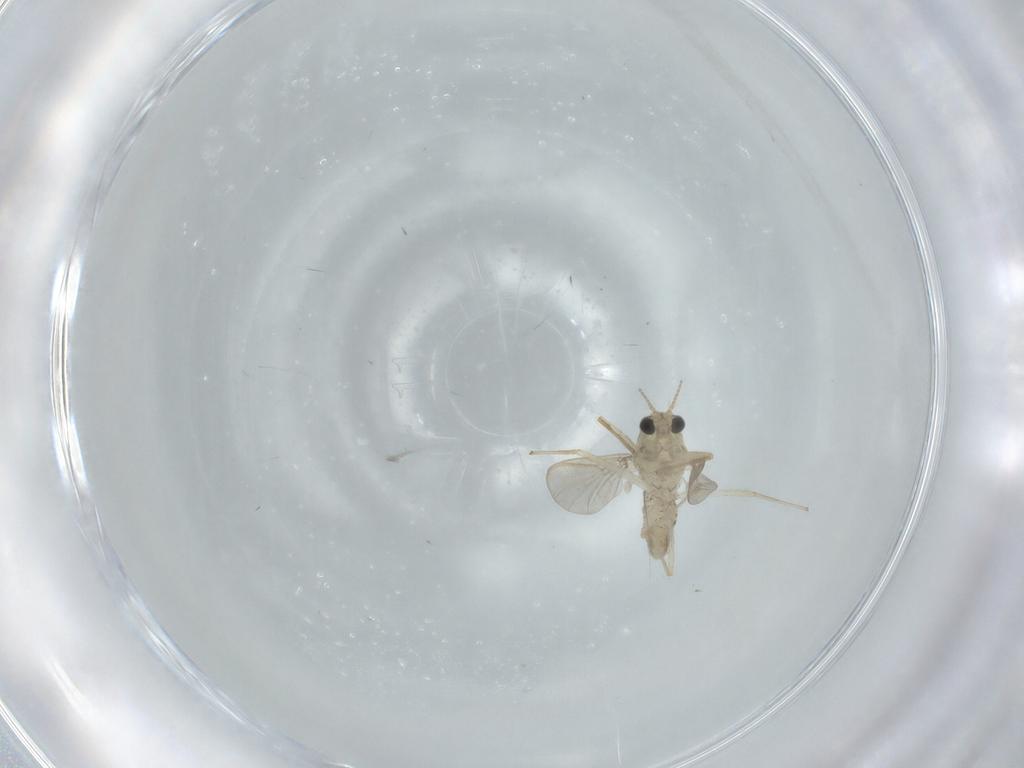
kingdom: Animalia
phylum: Arthropoda
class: Insecta
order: Diptera
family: Chironomidae
